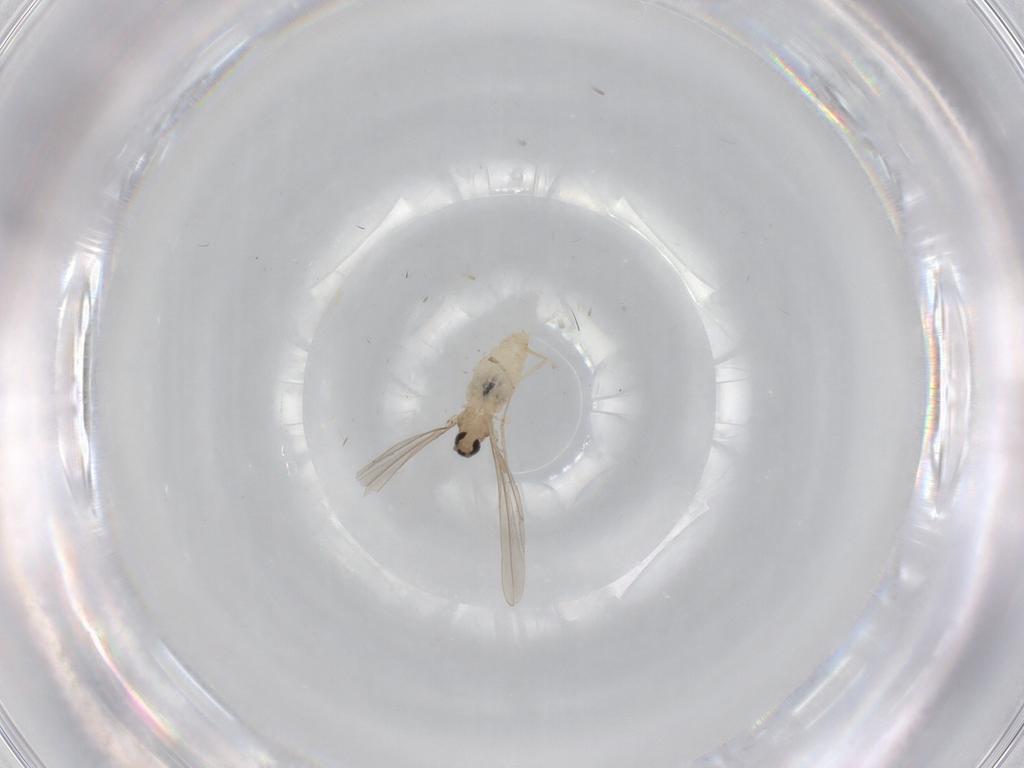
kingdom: Animalia
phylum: Arthropoda
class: Insecta
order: Diptera
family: Cecidomyiidae
